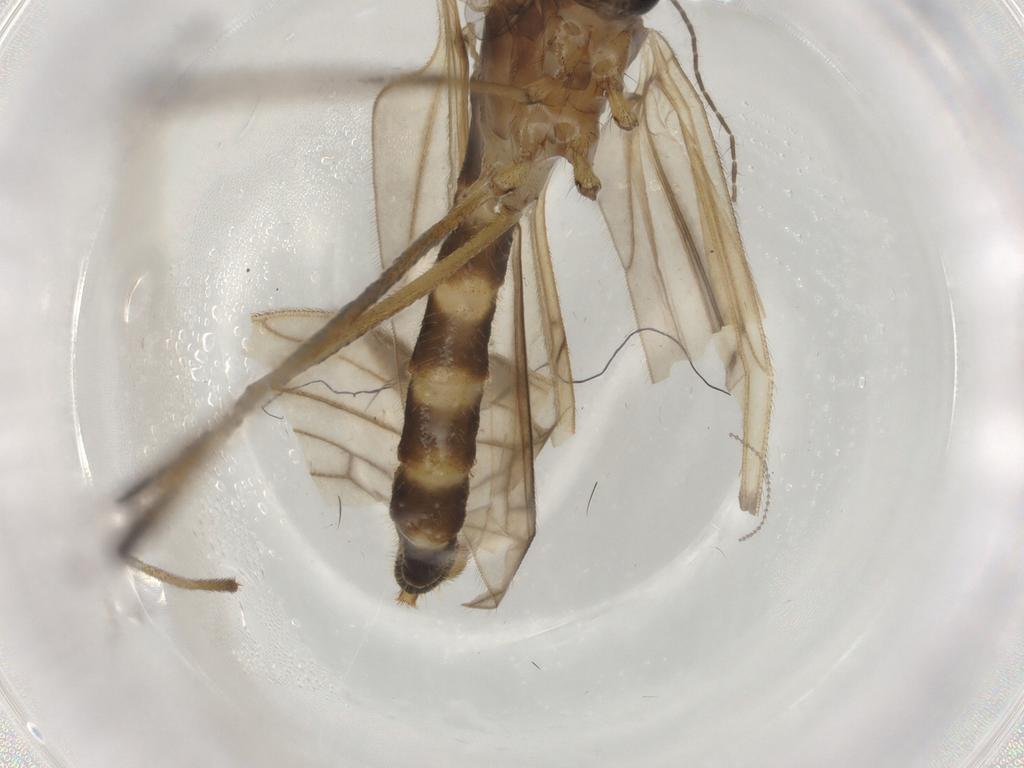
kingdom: Animalia
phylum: Arthropoda
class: Insecta
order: Diptera
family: Phoridae
